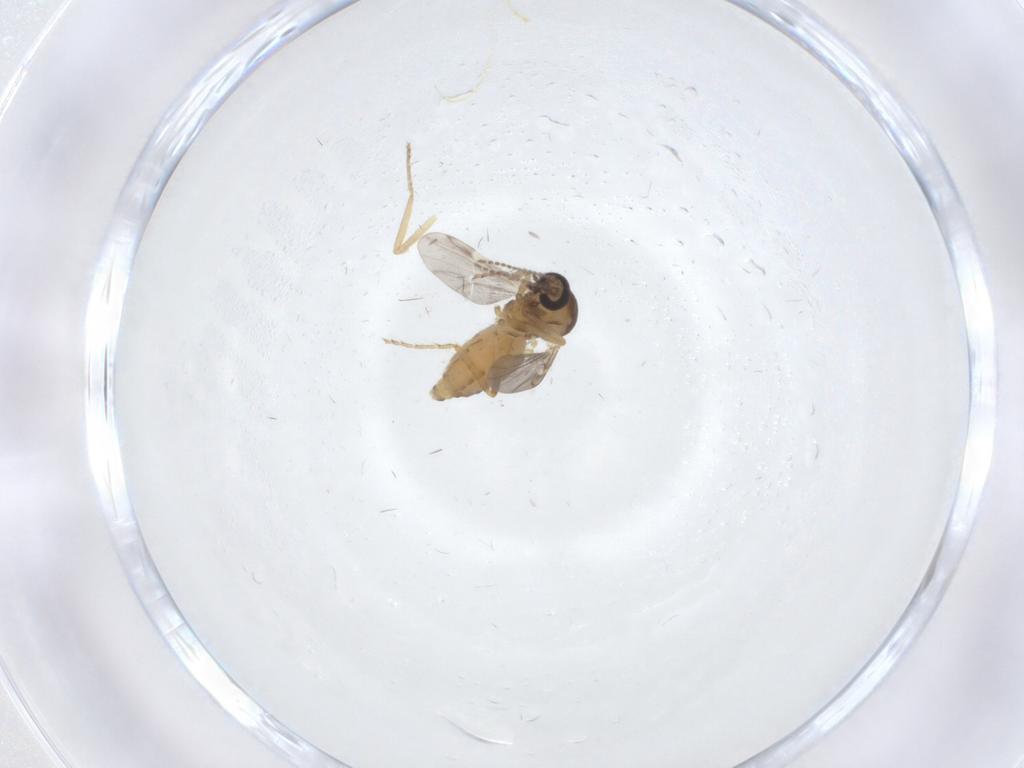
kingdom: Animalia
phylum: Arthropoda
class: Insecta
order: Diptera
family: Ceratopogonidae
